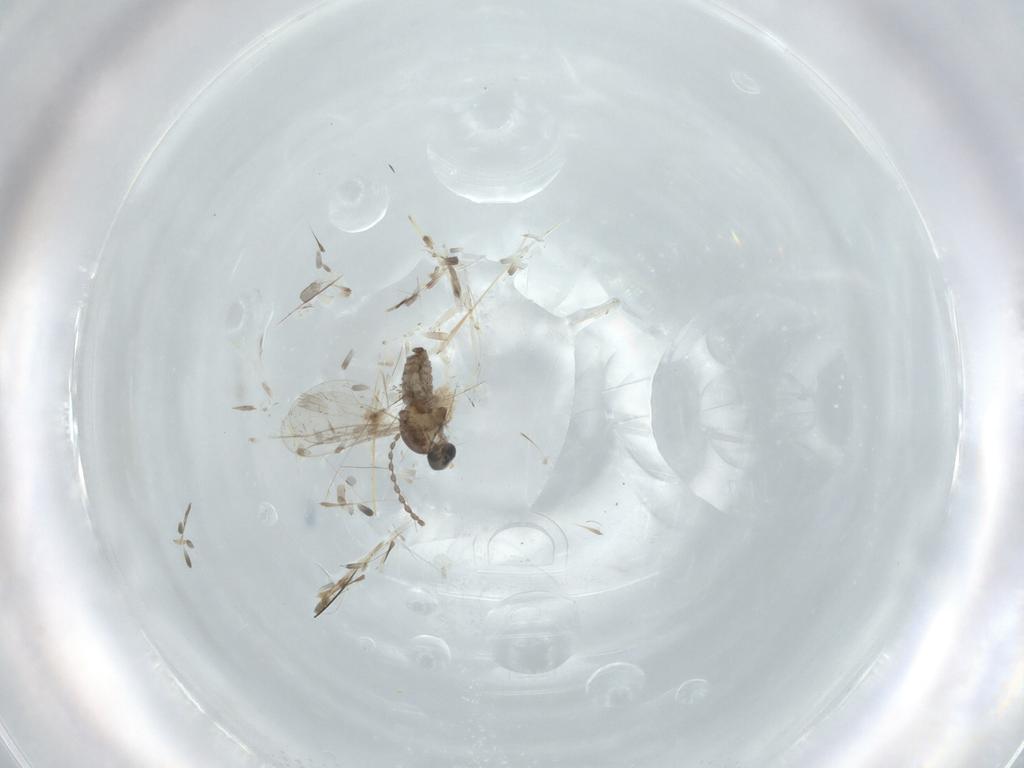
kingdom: Animalia
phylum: Arthropoda
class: Insecta
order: Diptera
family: Cecidomyiidae
